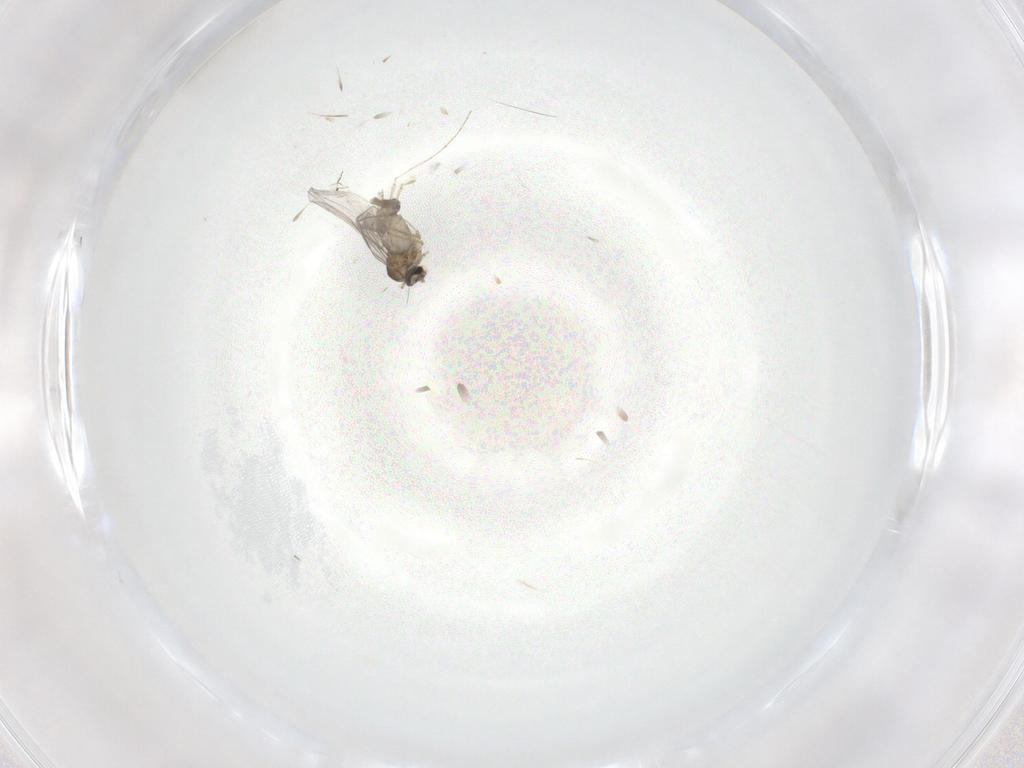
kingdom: Animalia
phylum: Arthropoda
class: Insecta
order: Diptera
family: Cecidomyiidae
